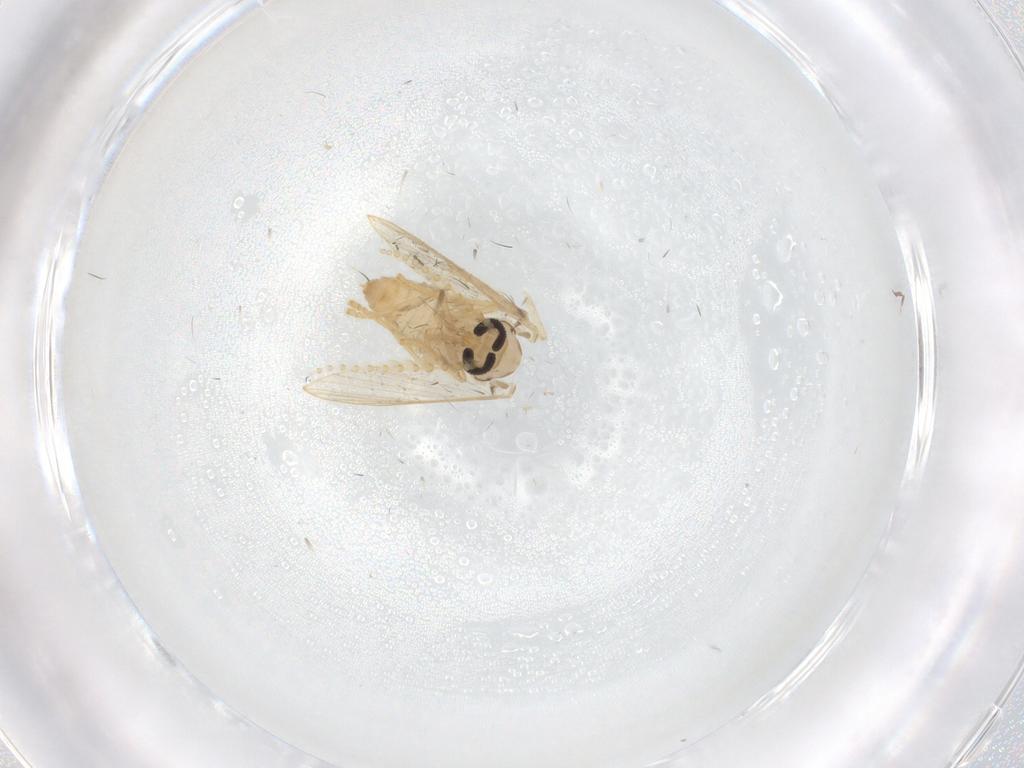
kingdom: Animalia
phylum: Arthropoda
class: Insecta
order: Diptera
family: Psychodidae
